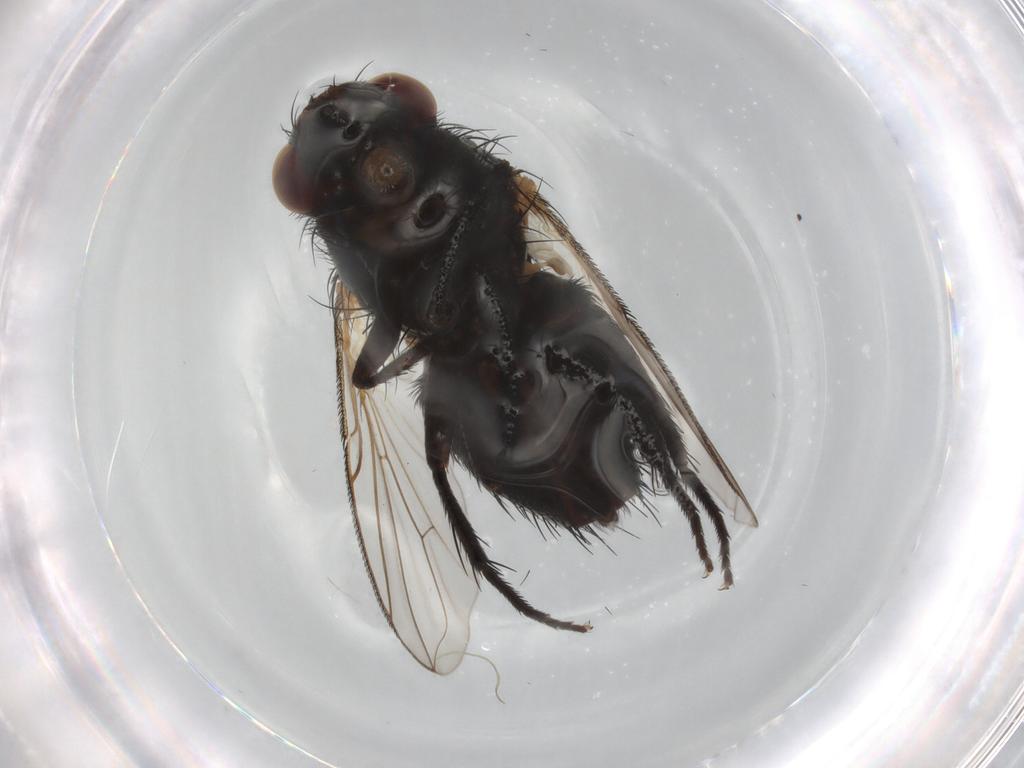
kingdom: Animalia
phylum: Arthropoda
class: Insecta
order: Diptera
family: Tachinidae
